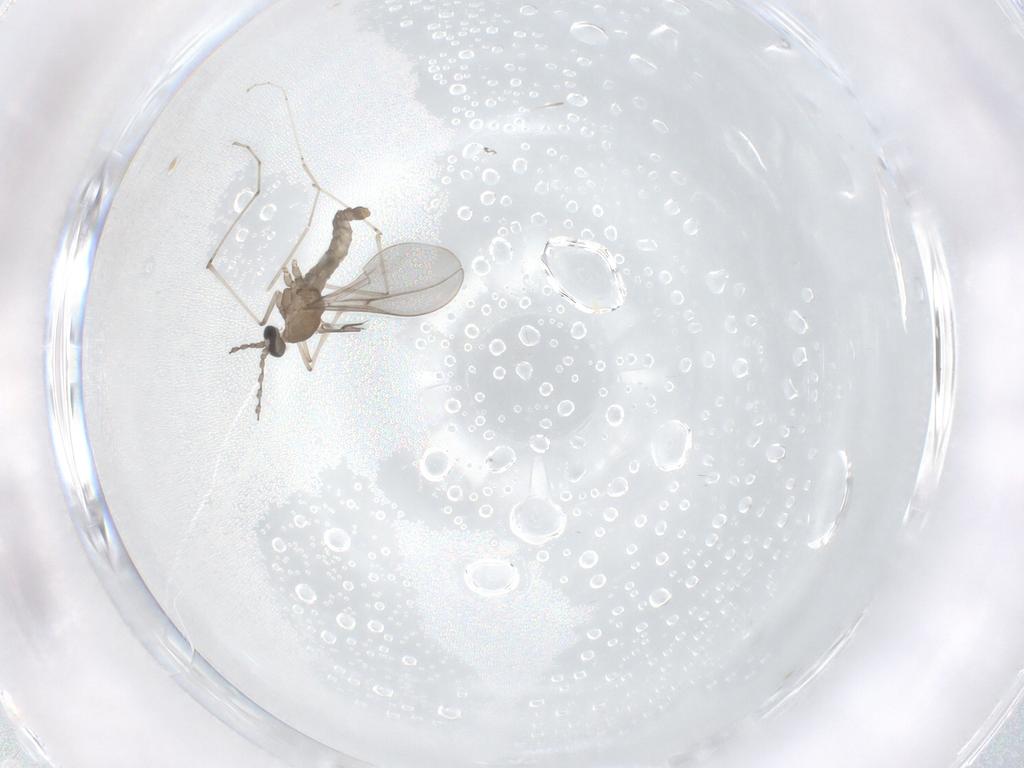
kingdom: Animalia
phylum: Arthropoda
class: Insecta
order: Diptera
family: Cecidomyiidae
